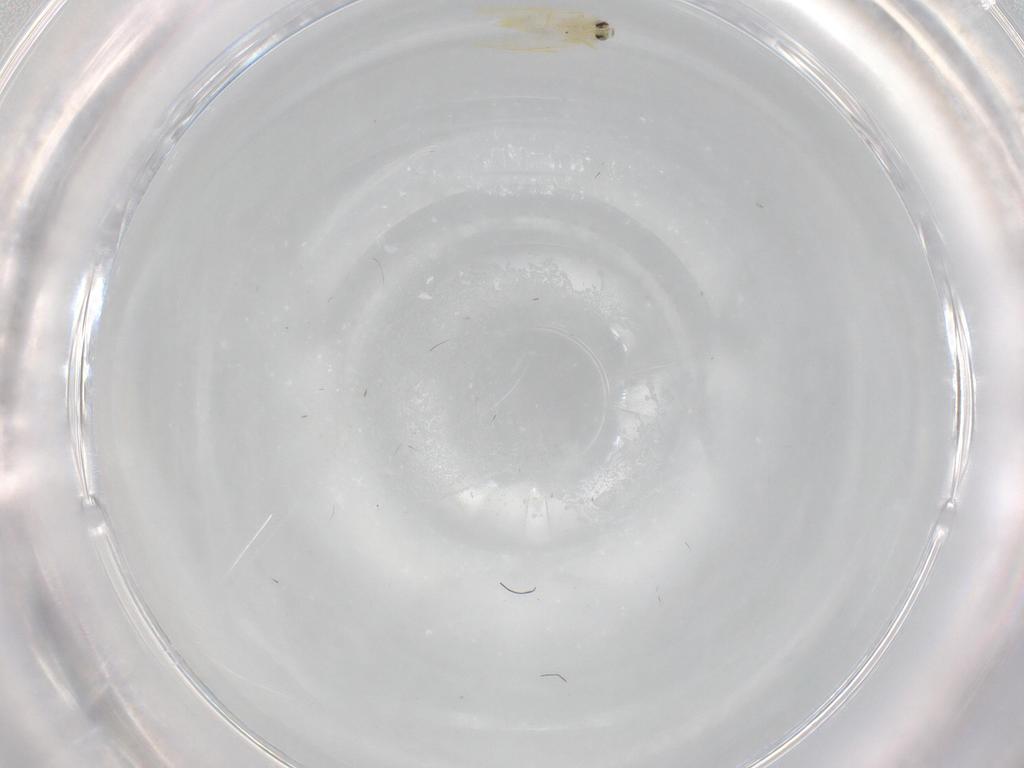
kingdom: Animalia
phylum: Arthropoda
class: Insecta
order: Hemiptera
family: Aleyrodidae
